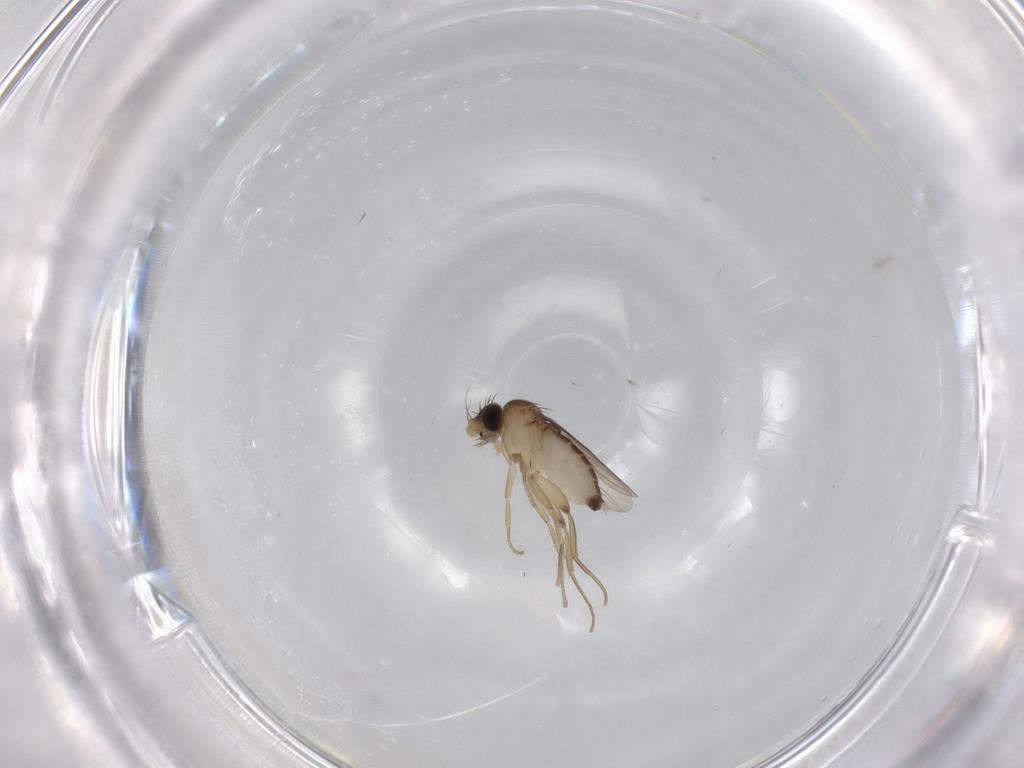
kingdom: Animalia
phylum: Arthropoda
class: Insecta
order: Diptera
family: Phoridae
